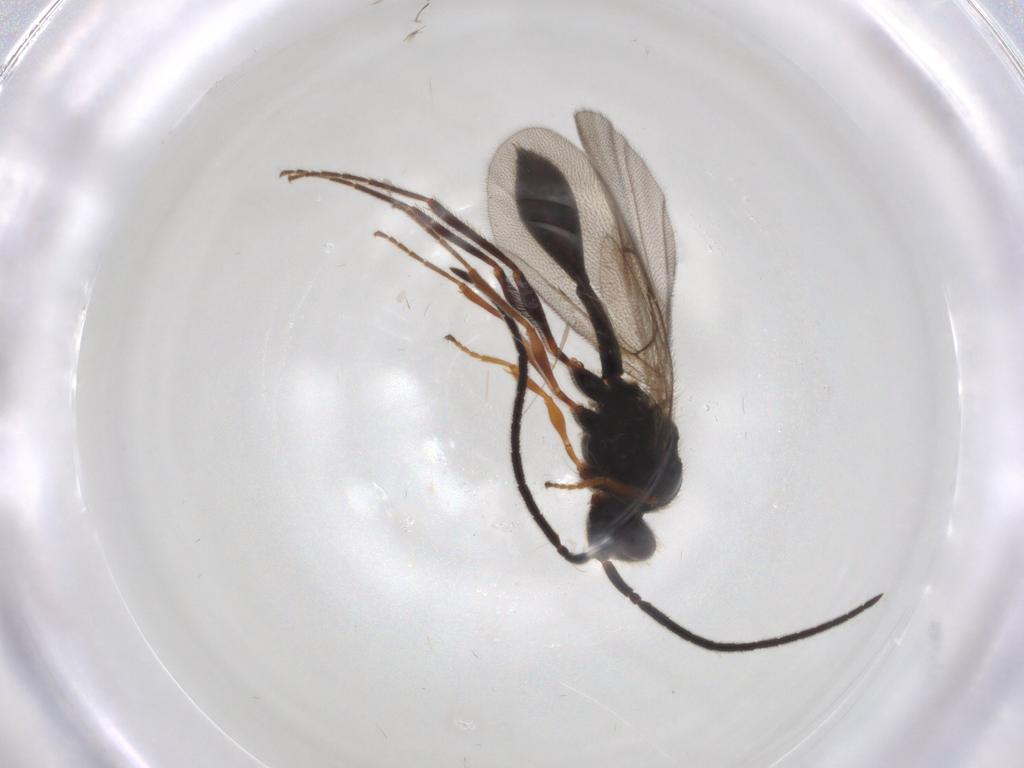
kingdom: Animalia
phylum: Arthropoda
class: Insecta
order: Hymenoptera
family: Diapriidae
